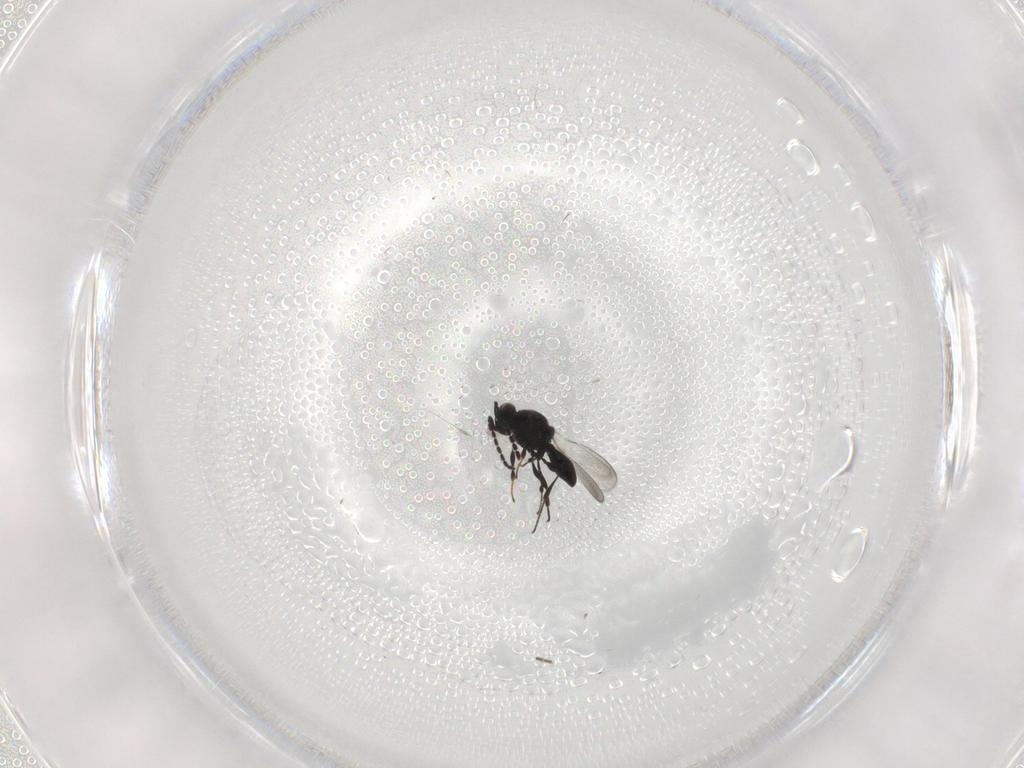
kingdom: Animalia
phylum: Arthropoda
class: Insecta
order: Hymenoptera
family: Platygastridae
